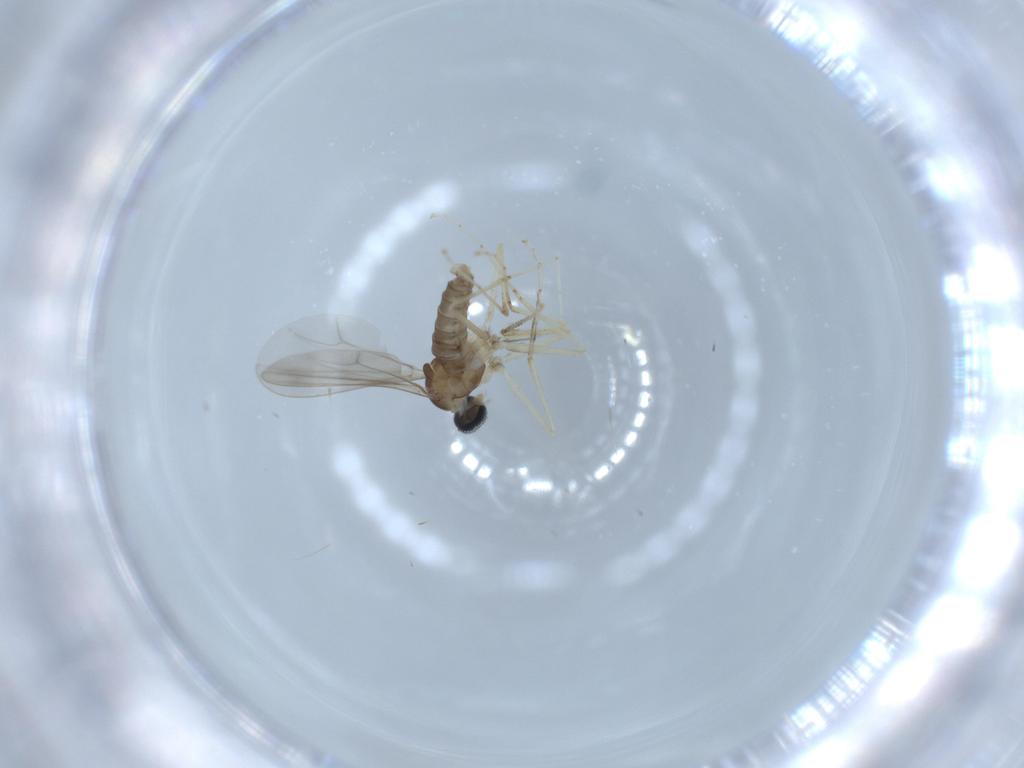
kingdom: Animalia
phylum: Arthropoda
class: Insecta
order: Diptera
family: Cecidomyiidae
